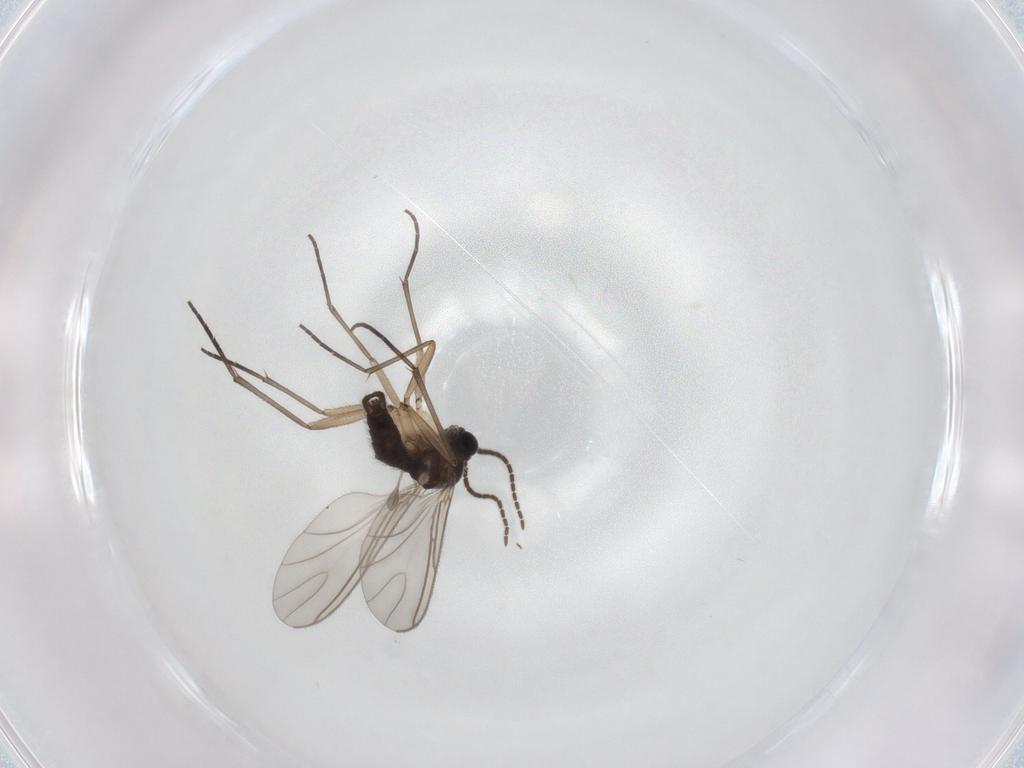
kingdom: Animalia
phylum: Arthropoda
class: Insecta
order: Diptera
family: Sciaridae
